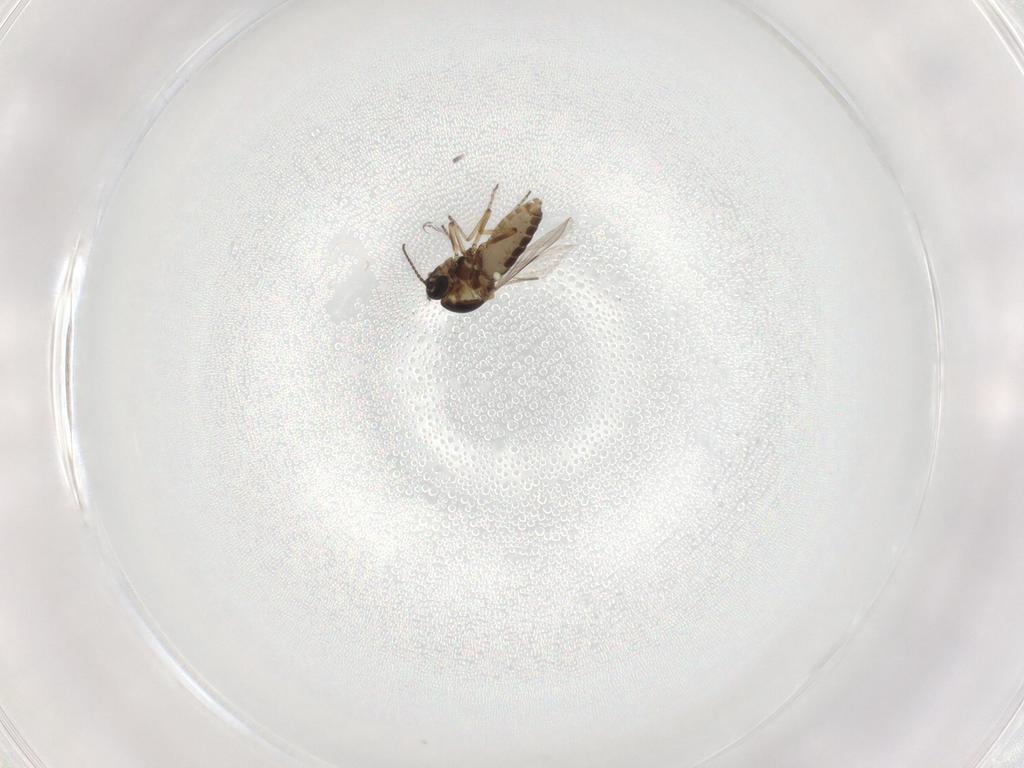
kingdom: Animalia
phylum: Arthropoda
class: Insecta
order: Diptera
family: Ceratopogonidae
